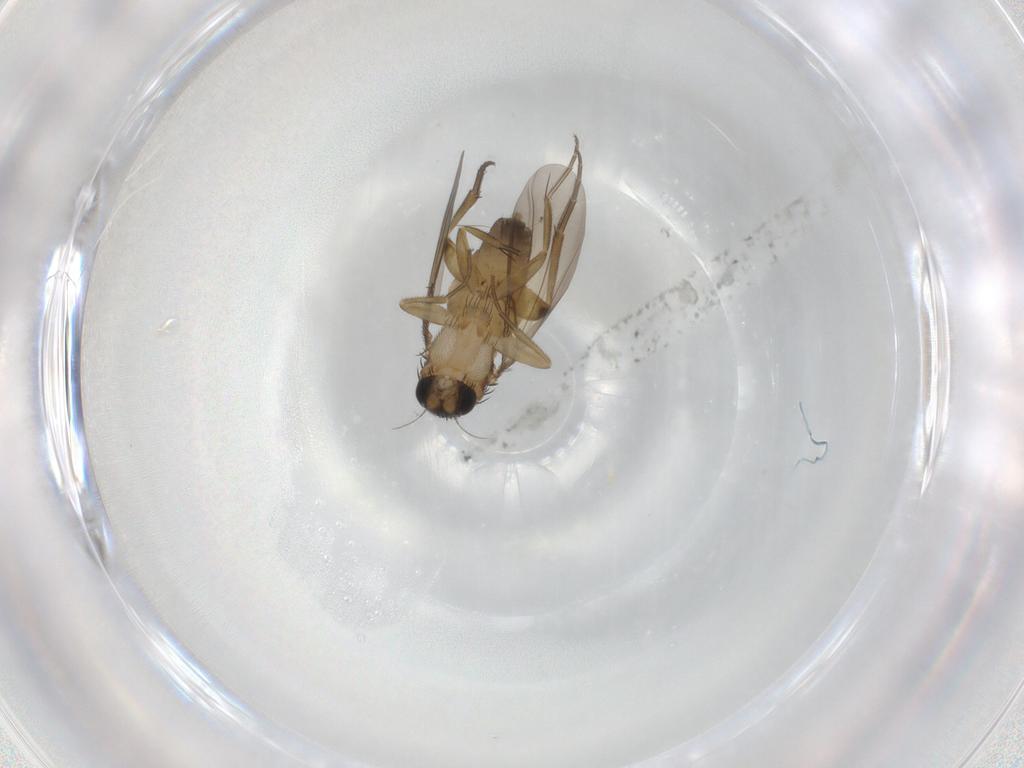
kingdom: Animalia
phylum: Arthropoda
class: Insecta
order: Diptera
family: Phoridae
